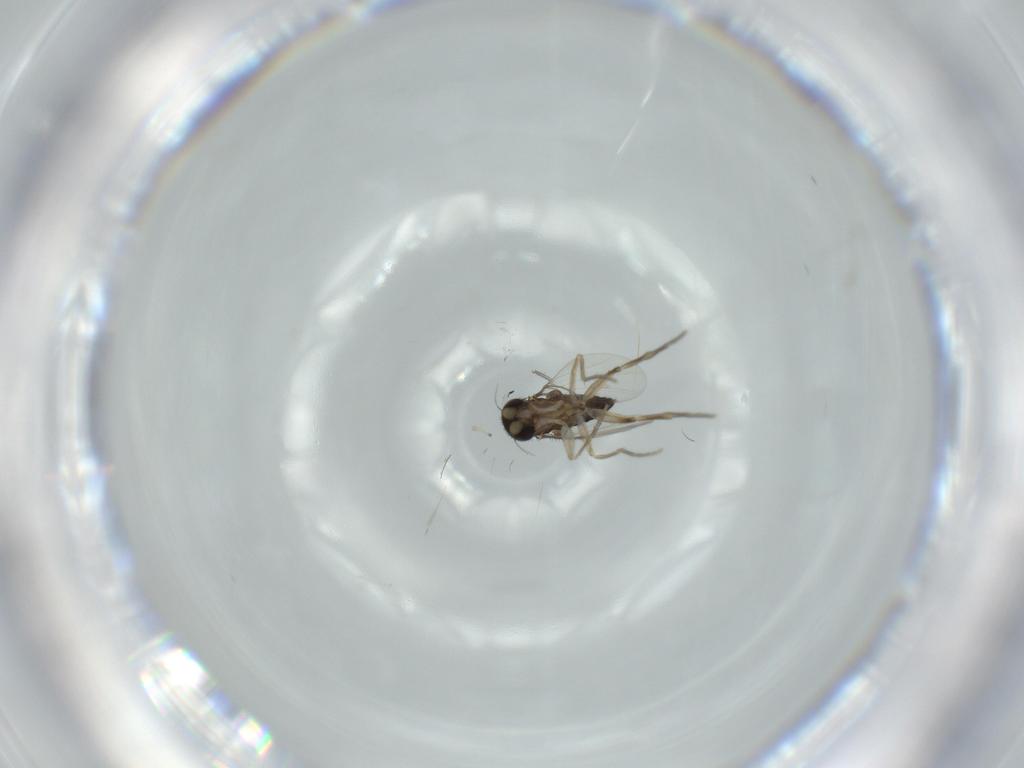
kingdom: Animalia
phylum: Arthropoda
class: Insecta
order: Diptera
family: Phoridae
